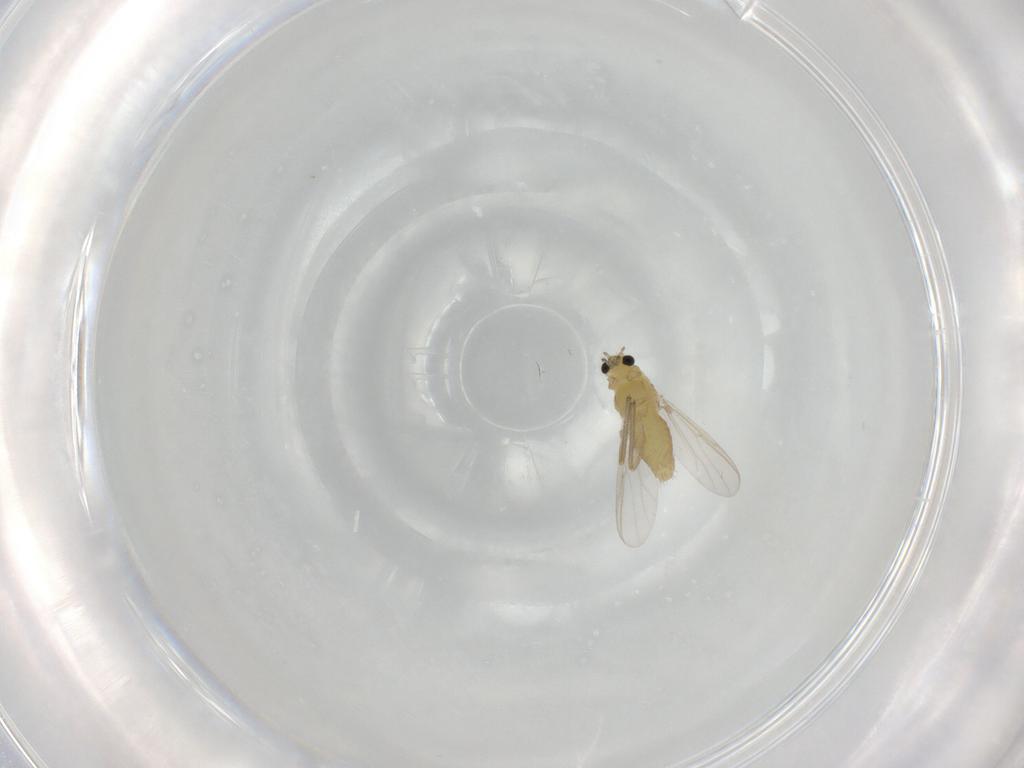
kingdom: Animalia
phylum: Arthropoda
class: Insecta
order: Diptera
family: Chironomidae
